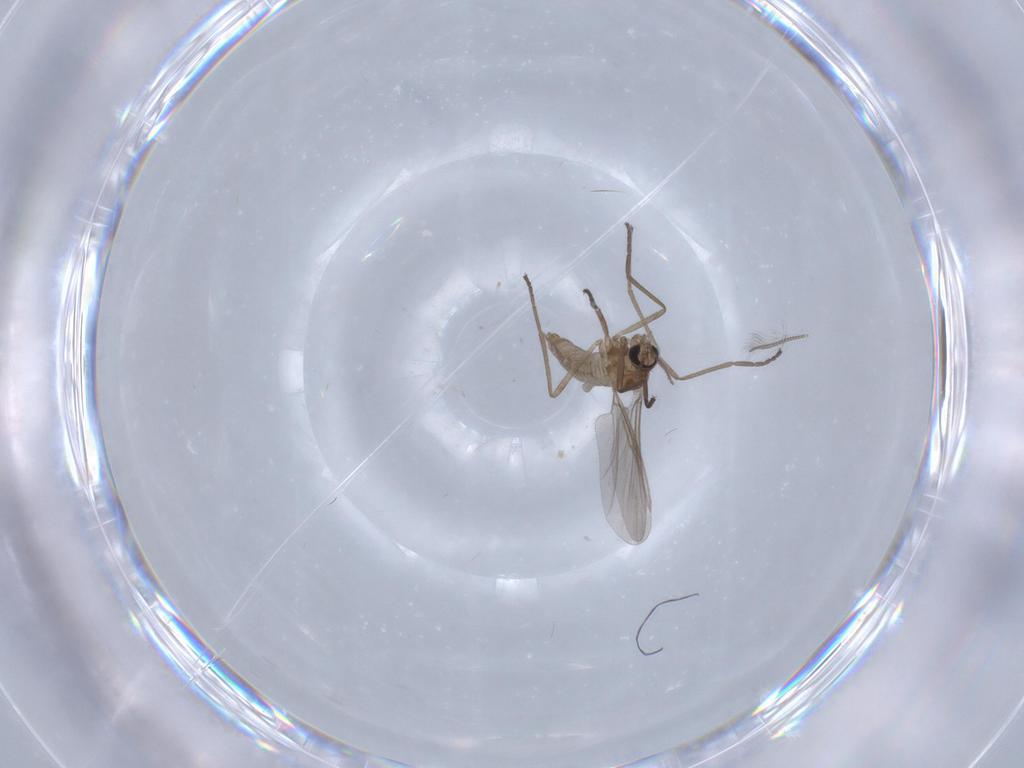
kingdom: Animalia
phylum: Arthropoda
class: Insecta
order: Diptera
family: Cecidomyiidae
